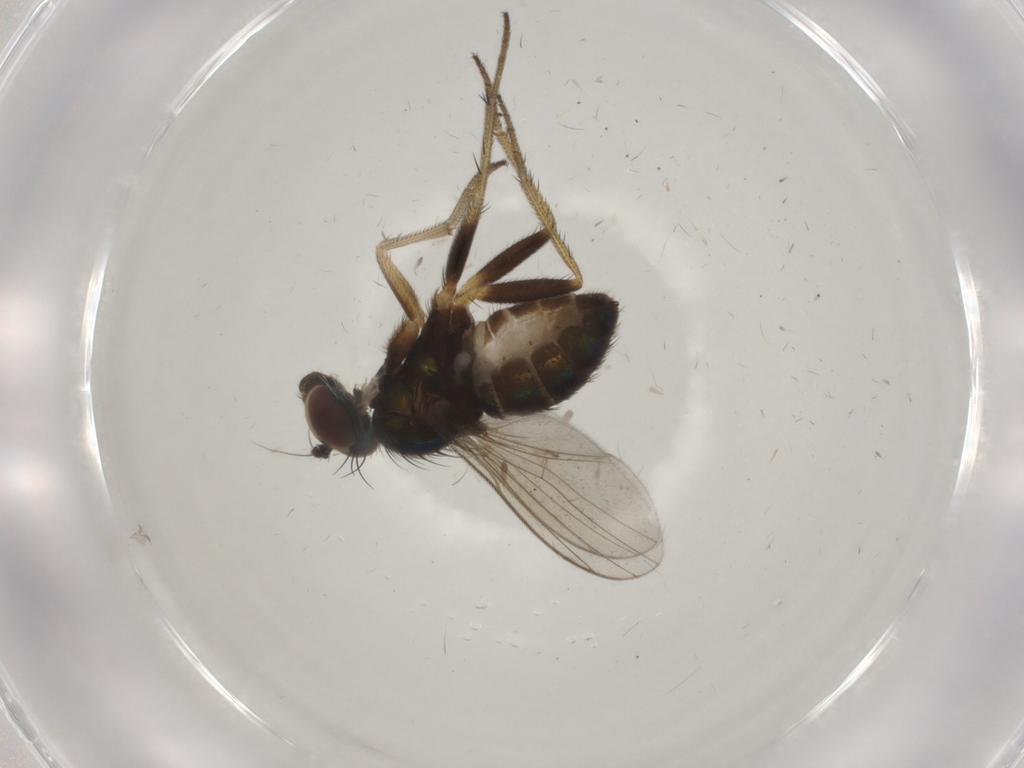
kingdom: Animalia
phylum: Arthropoda
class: Insecta
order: Diptera
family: Dolichopodidae
